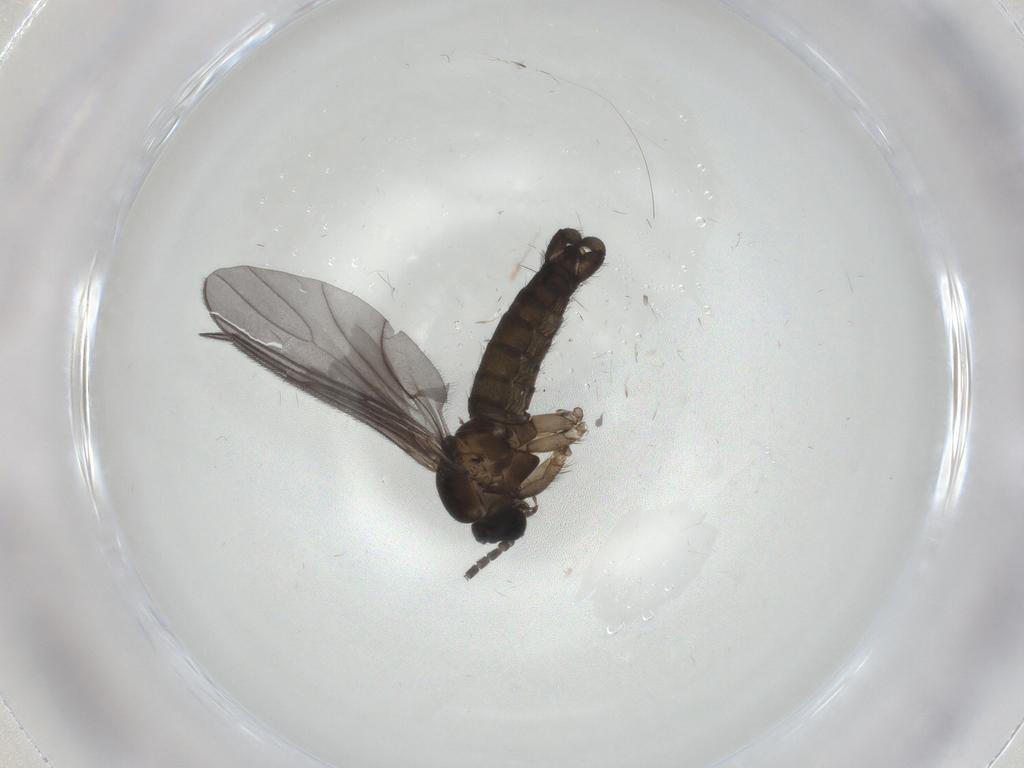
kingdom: Animalia
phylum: Arthropoda
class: Insecta
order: Diptera
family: Sciaridae
